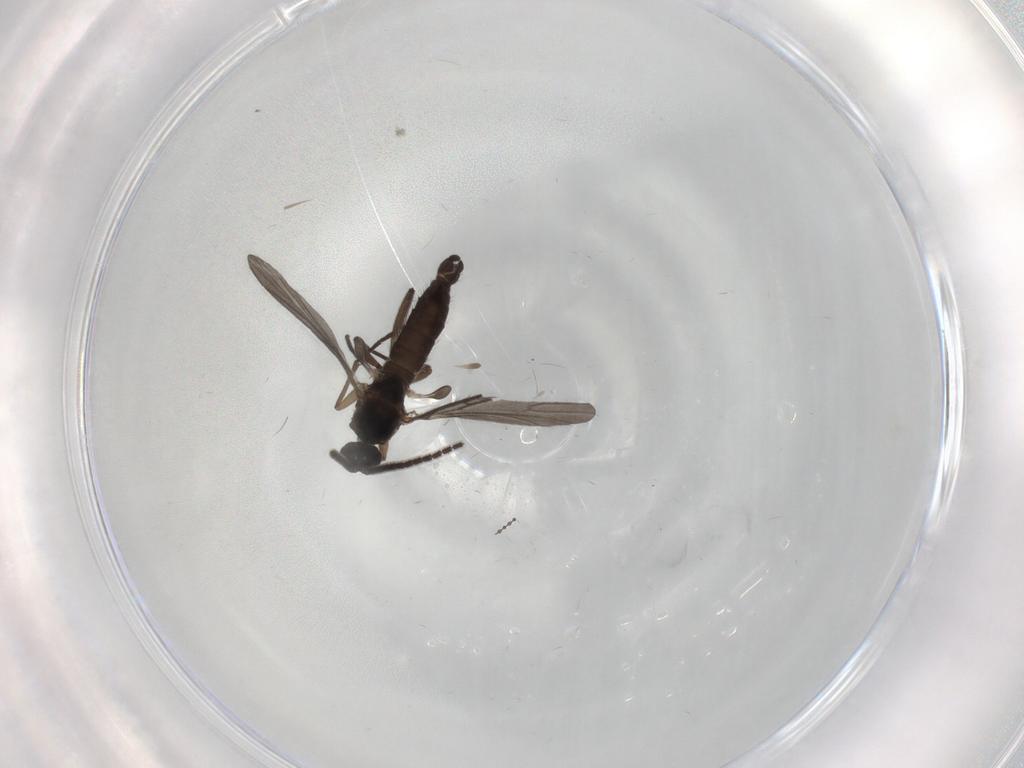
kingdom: Animalia
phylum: Arthropoda
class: Insecta
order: Diptera
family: Sciaridae
